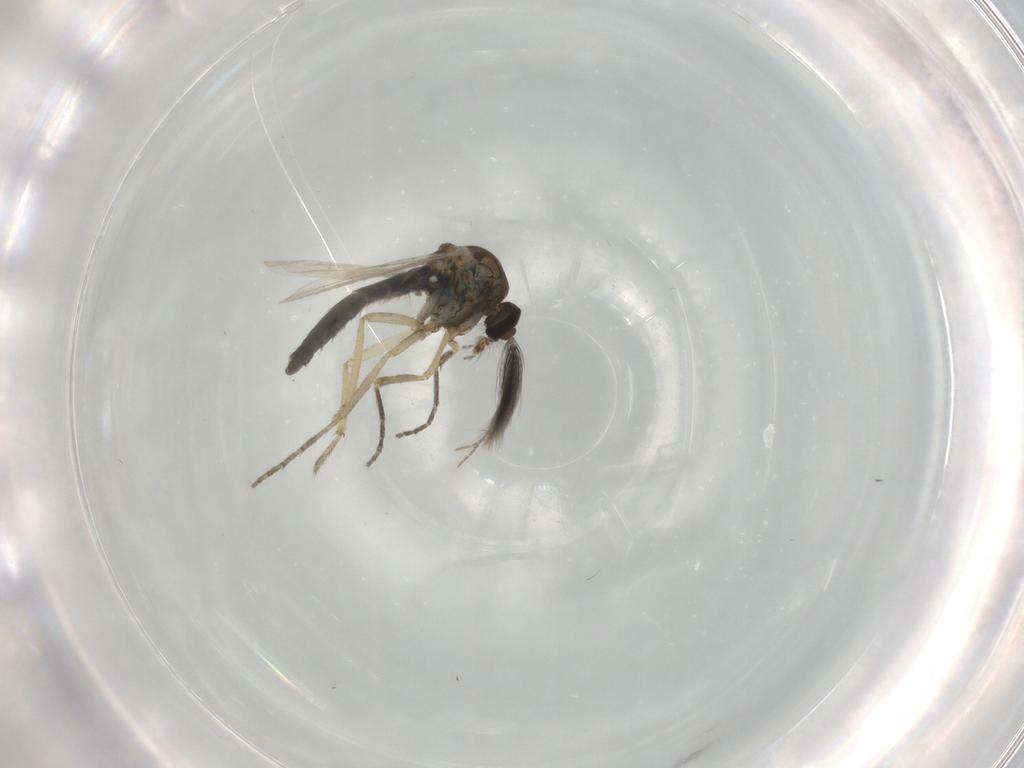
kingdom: Animalia
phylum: Arthropoda
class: Insecta
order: Diptera
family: Ceratopogonidae
